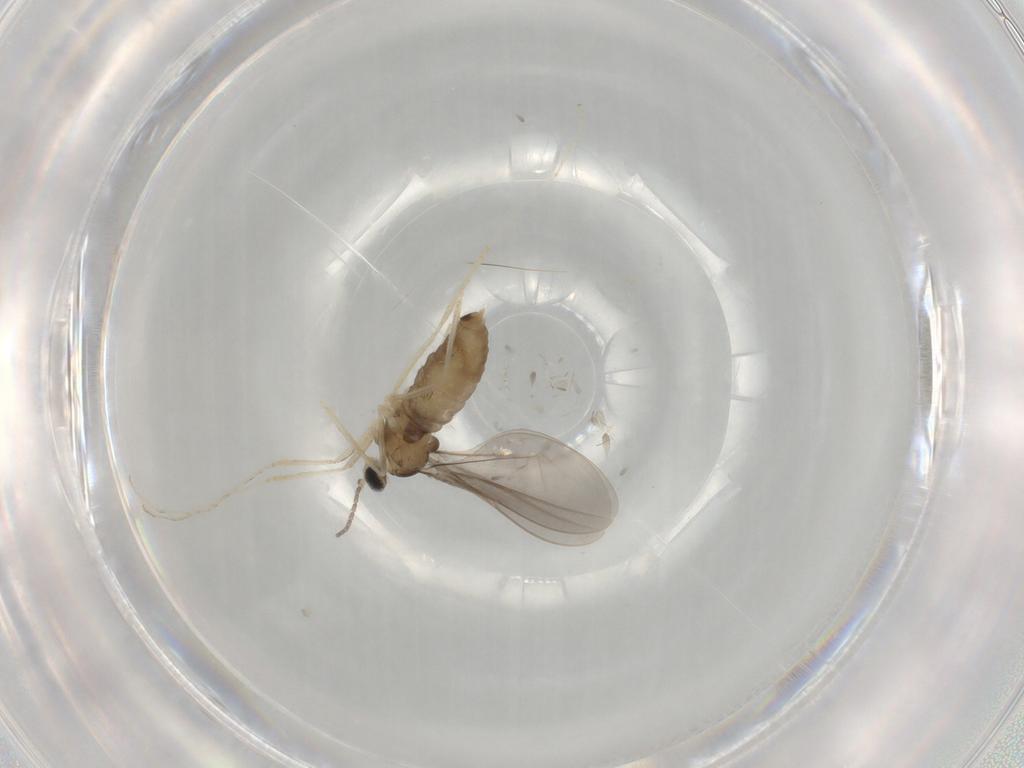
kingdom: Animalia
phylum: Arthropoda
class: Insecta
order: Diptera
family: Cecidomyiidae
